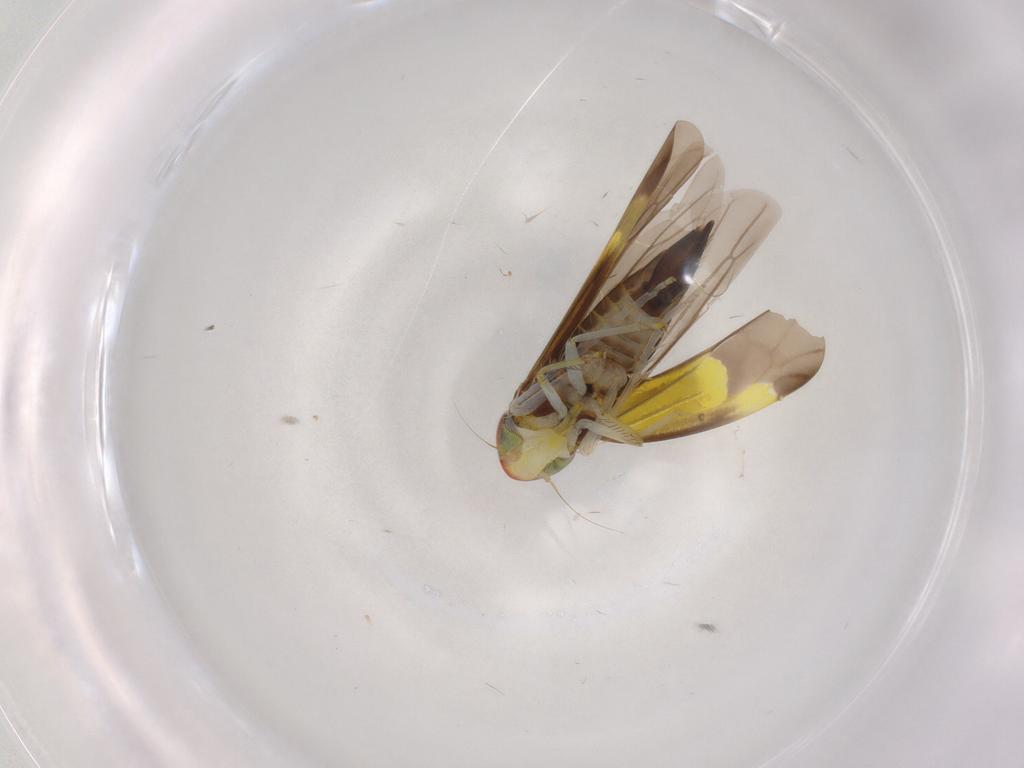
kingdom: Animalia
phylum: Arthropoda
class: Insecta
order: Hemiptera
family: Cicadellidae
